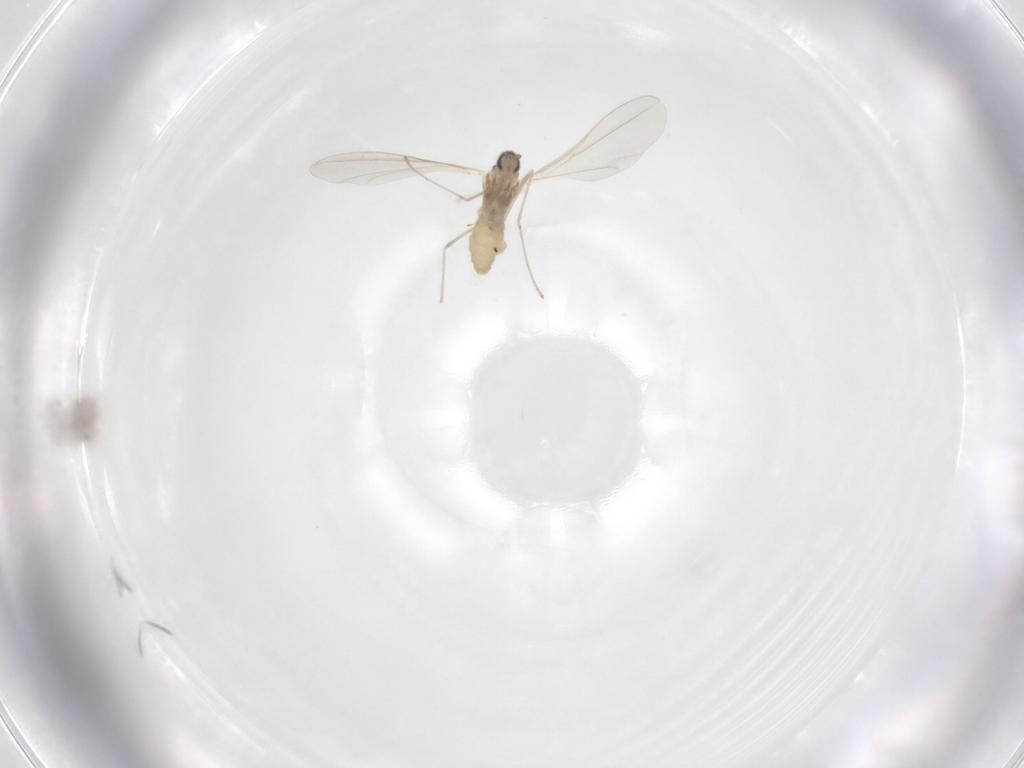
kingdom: Animalia
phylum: Arthropoda
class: Insecta
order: Diptera
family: Cecidomyiidae
